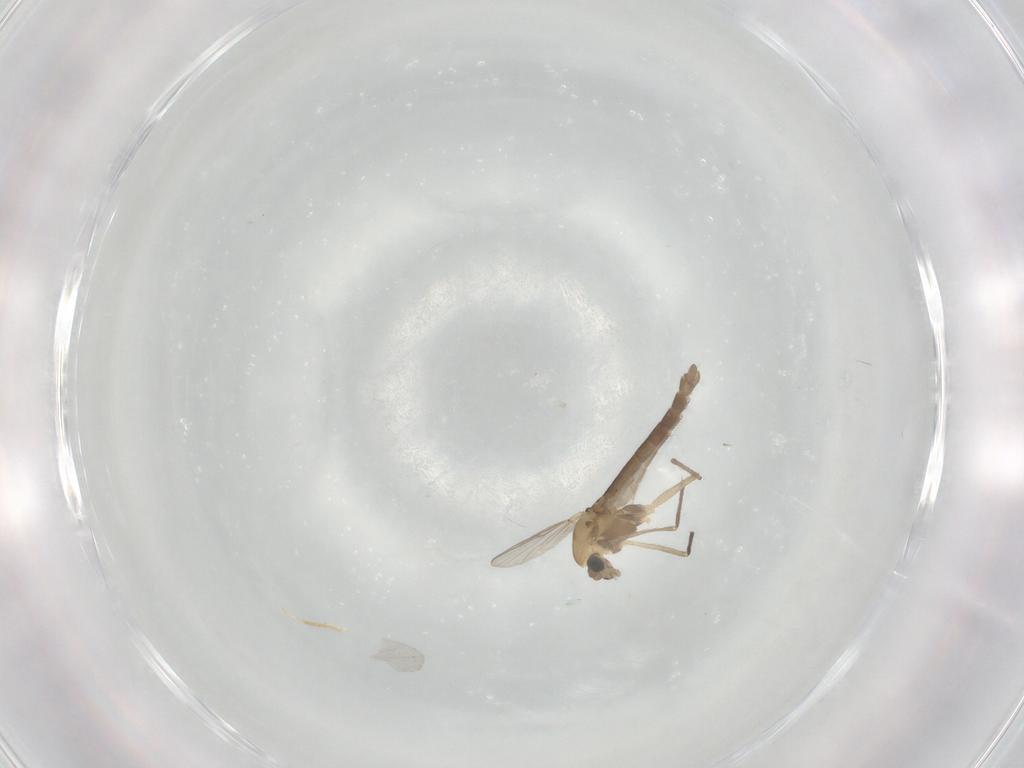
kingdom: Animalia
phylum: Arthropoda
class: Insecta
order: Diptera
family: Chironomidae
